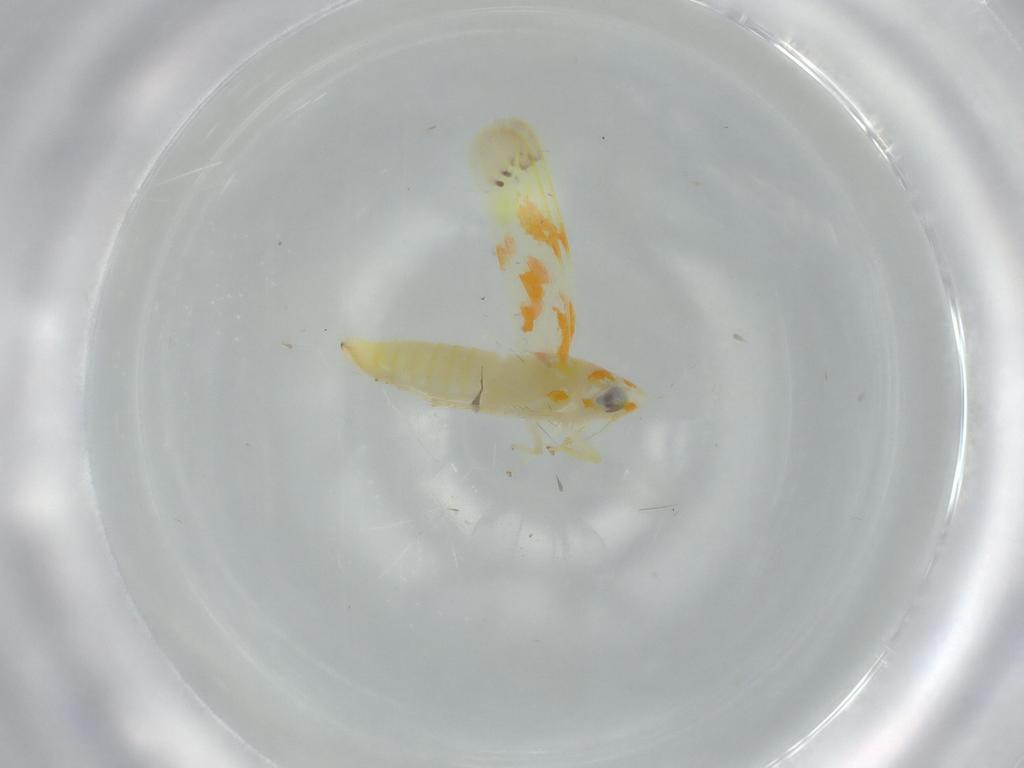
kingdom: Animalia
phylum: Arthropoda
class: Insecta
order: Hemiptera
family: Cicadellidae
